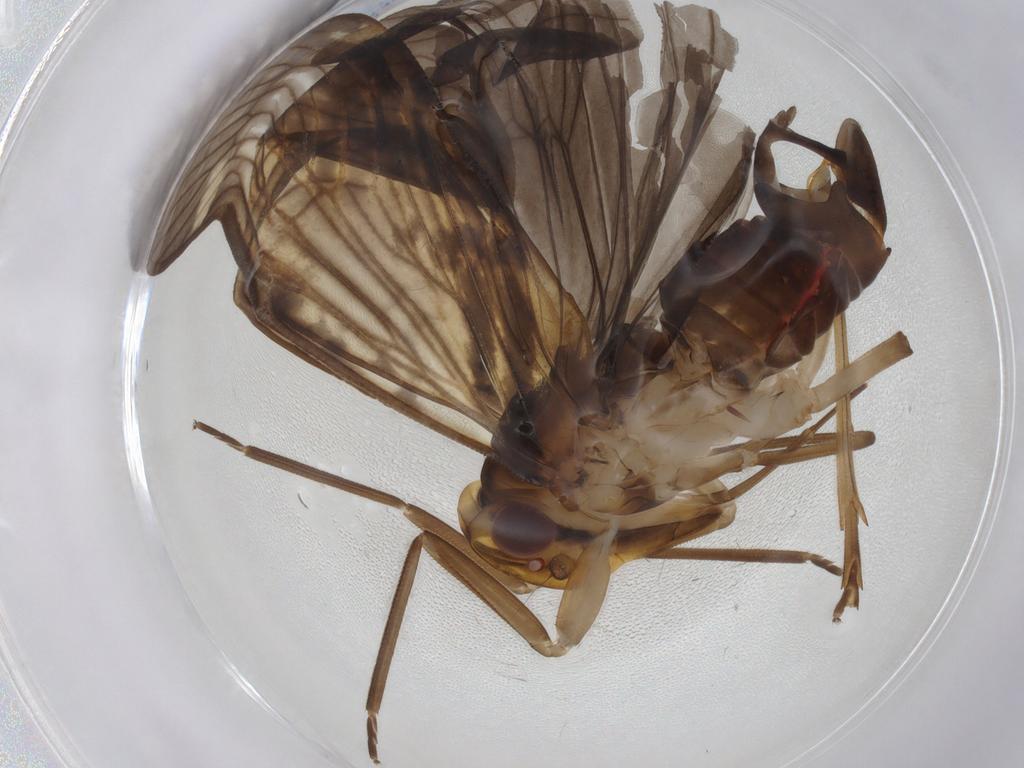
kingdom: Animalia
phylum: Arthropoda
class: Insecta
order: Hemiptera
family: Cixiidae
